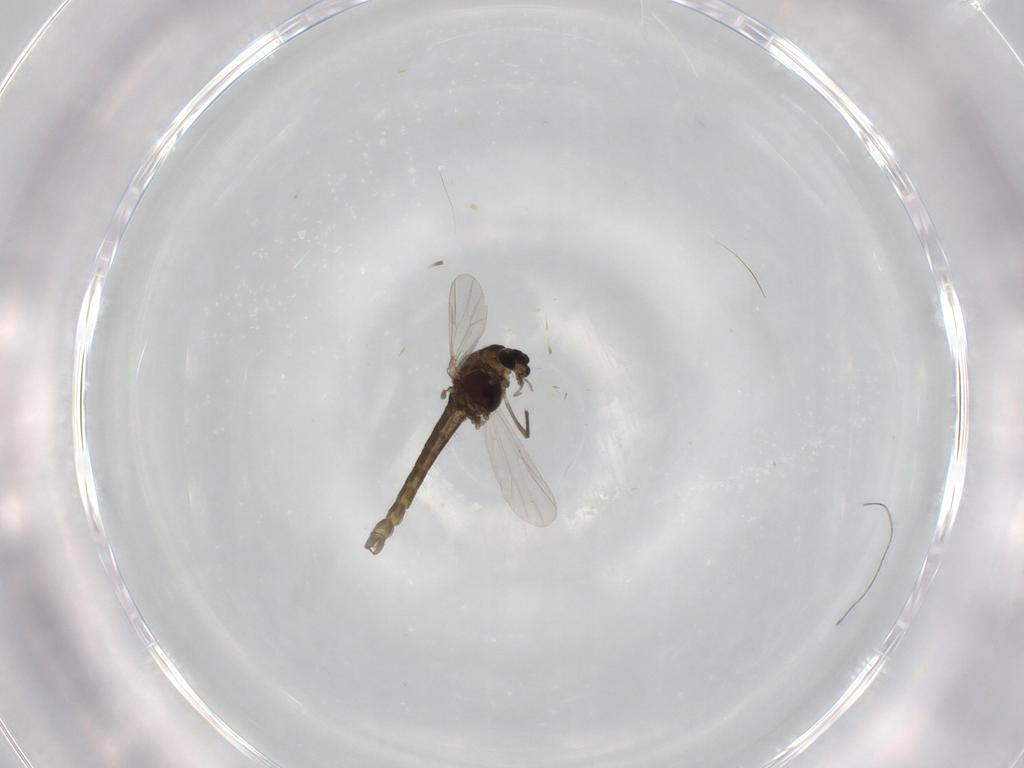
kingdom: Animalia
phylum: Arthropoda
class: Insecta
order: Diptera
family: Chironomidae
